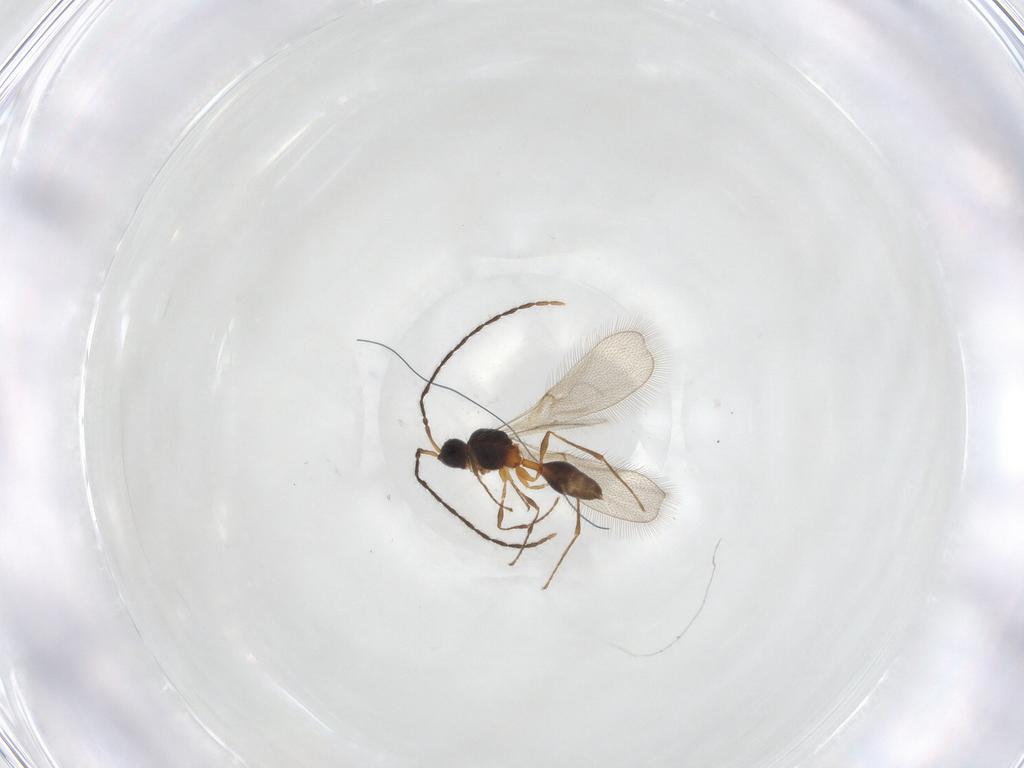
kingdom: Animalia
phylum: Arthropoda
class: Insecta
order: Hymenoptera
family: Diapriidae
